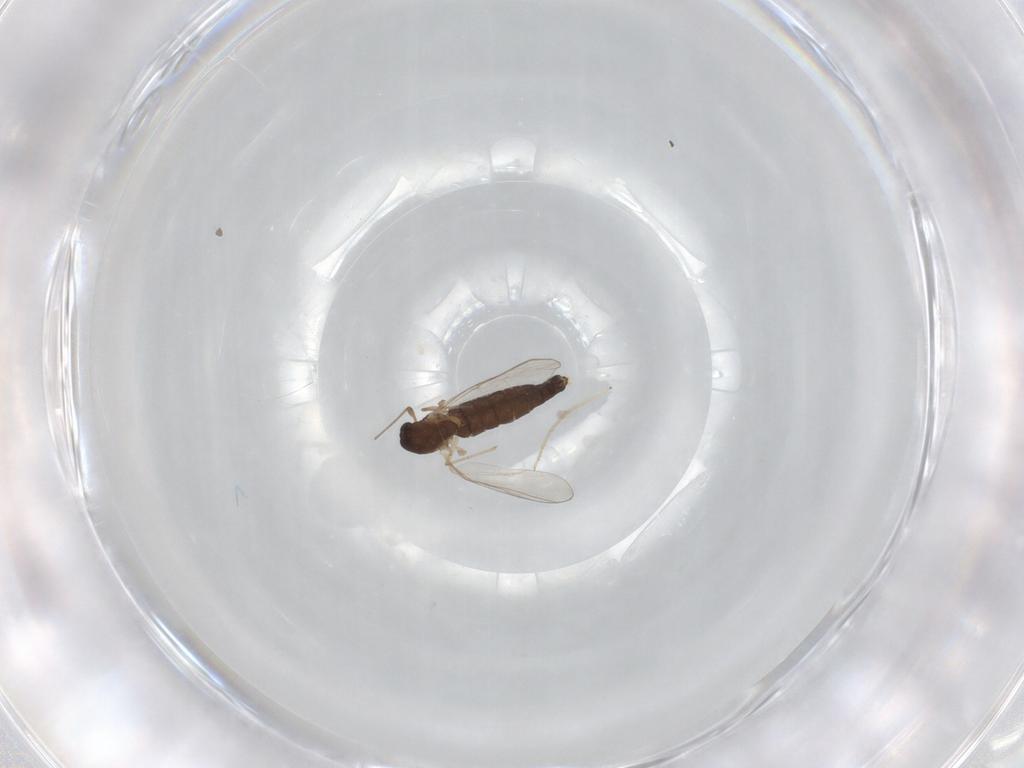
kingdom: Animalia
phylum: Arthropoda
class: Insecta
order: Diptera
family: Chironomidae
